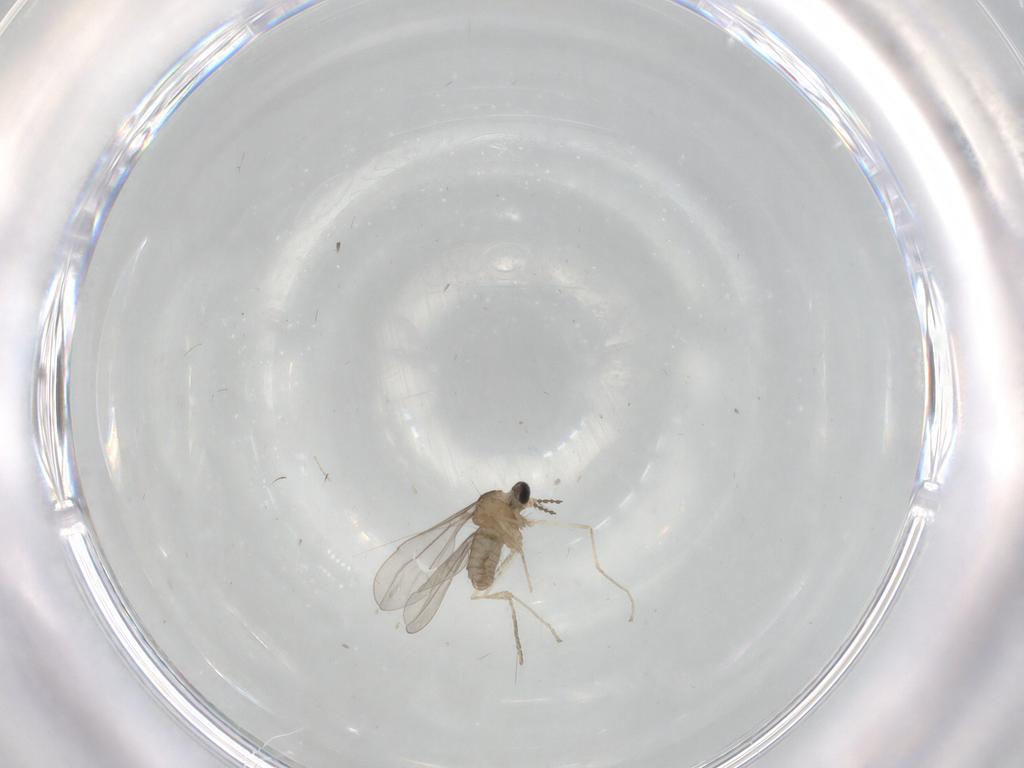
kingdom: Animalia
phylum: Arthropoda
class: Insecta
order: Diptera
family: Cecidomyiidae
